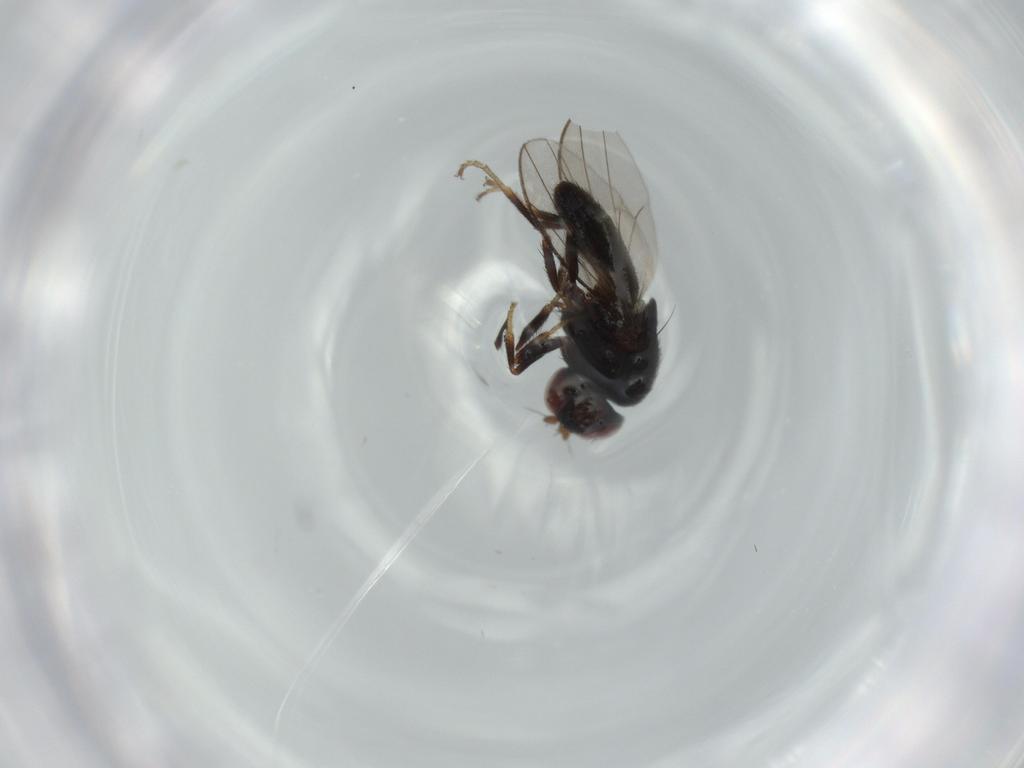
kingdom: Animalia
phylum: Arthropoda
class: Insecta
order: Diptera
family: Chironomidae
